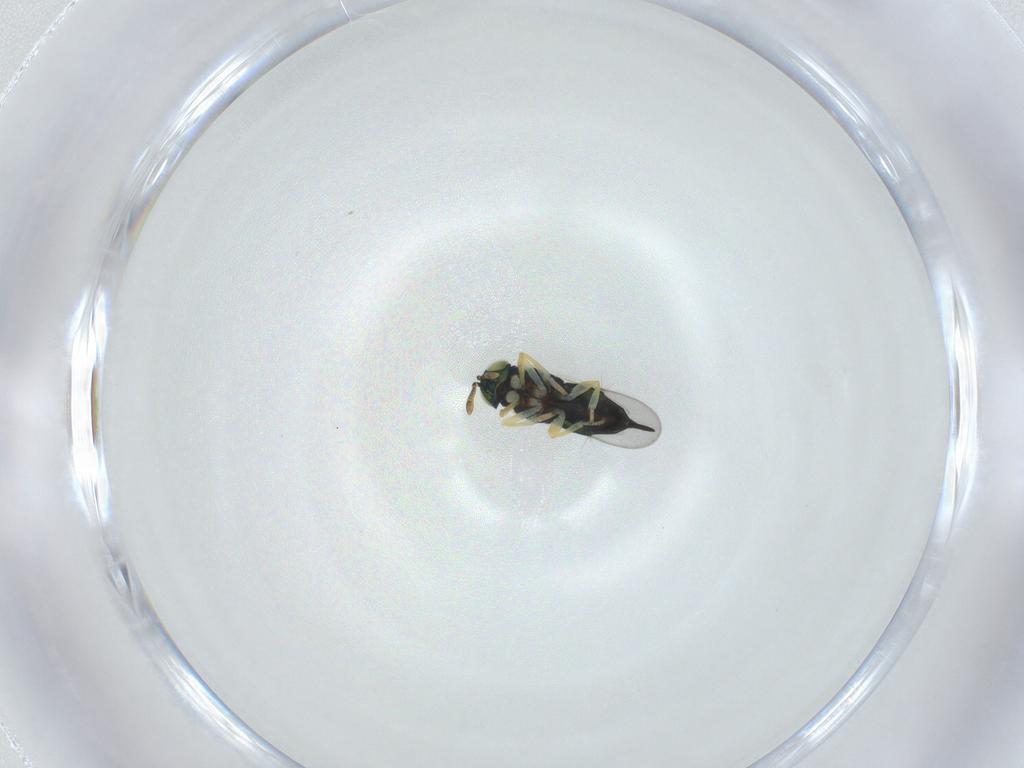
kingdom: Animalia
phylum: Arthropoda
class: Insecta
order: Hymenoptera
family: Encyrtidae
